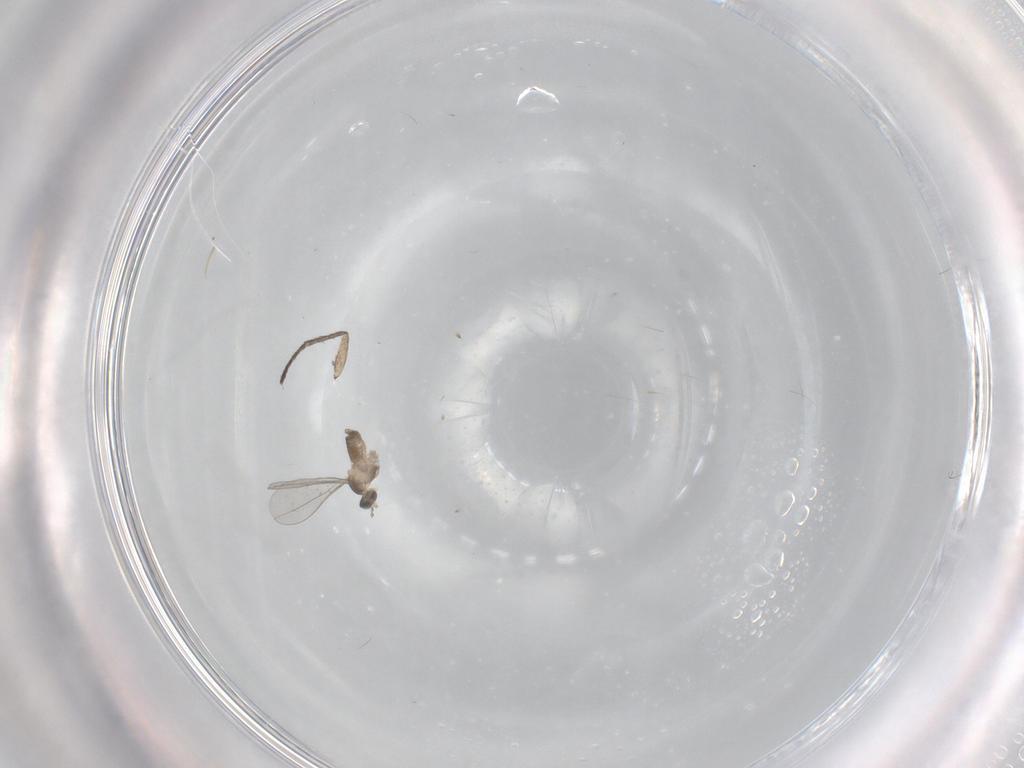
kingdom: Animalia
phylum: Arthropoda
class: Insecta
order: Diptera
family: Cecidomyiidae
